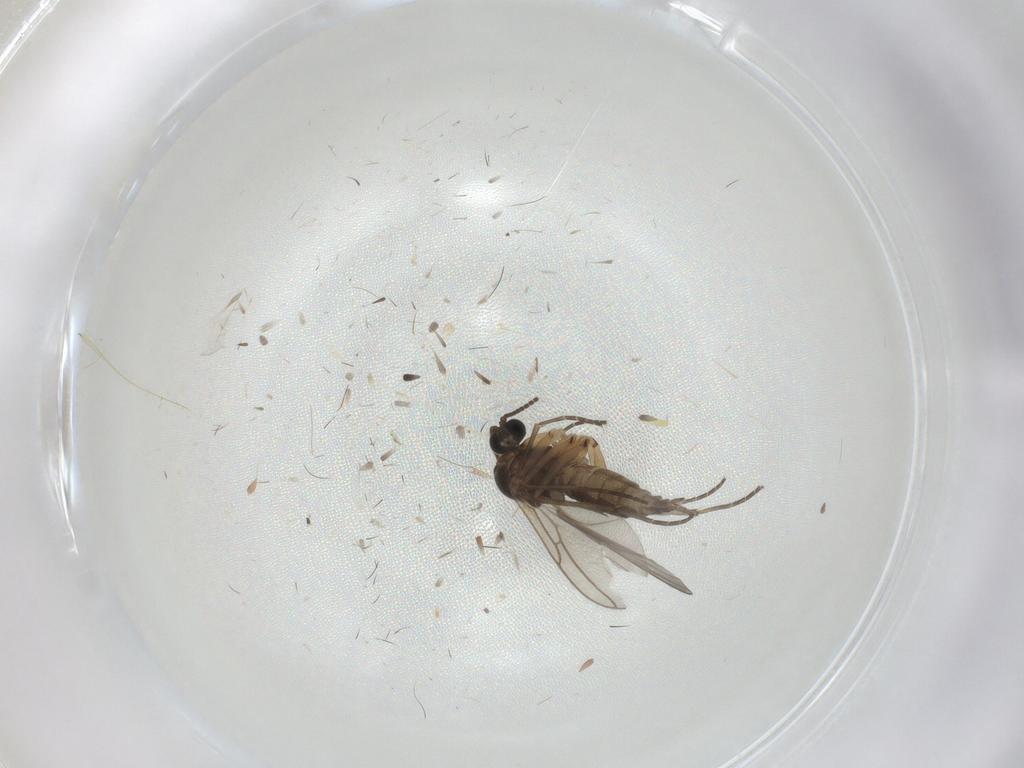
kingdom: Animalia
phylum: Arthropoda
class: Insecta
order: Diptera
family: Sciaridae
